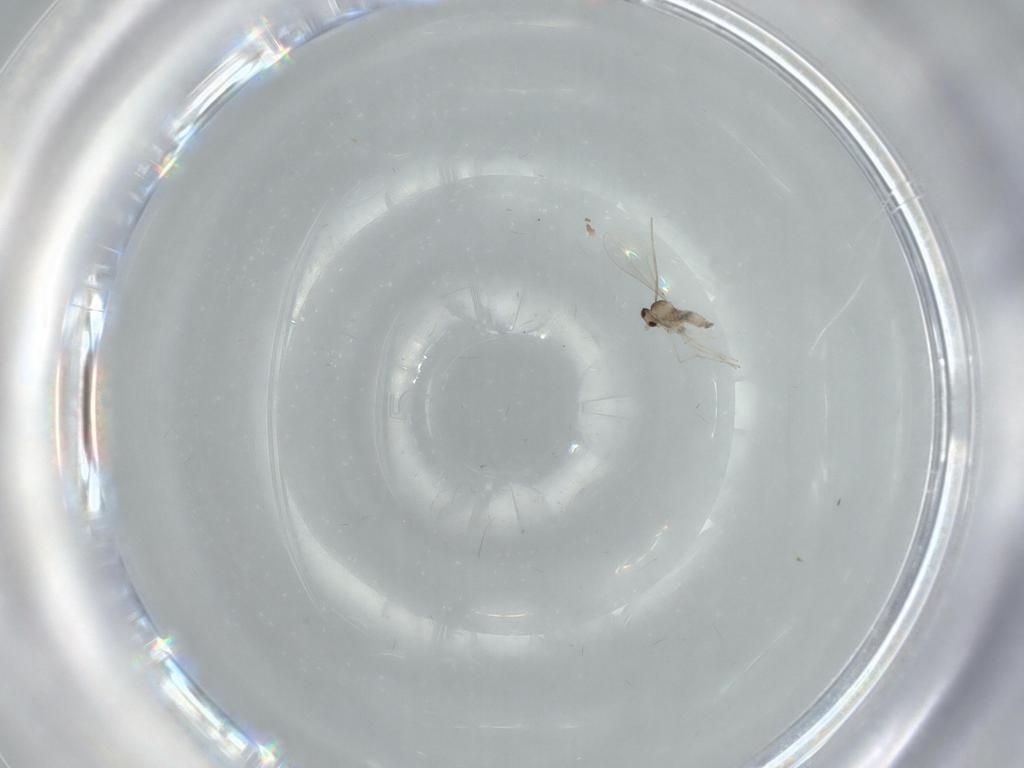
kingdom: Animalia
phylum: Arthropoda
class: Insecta
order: Diptera
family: Cecidomyiidae
